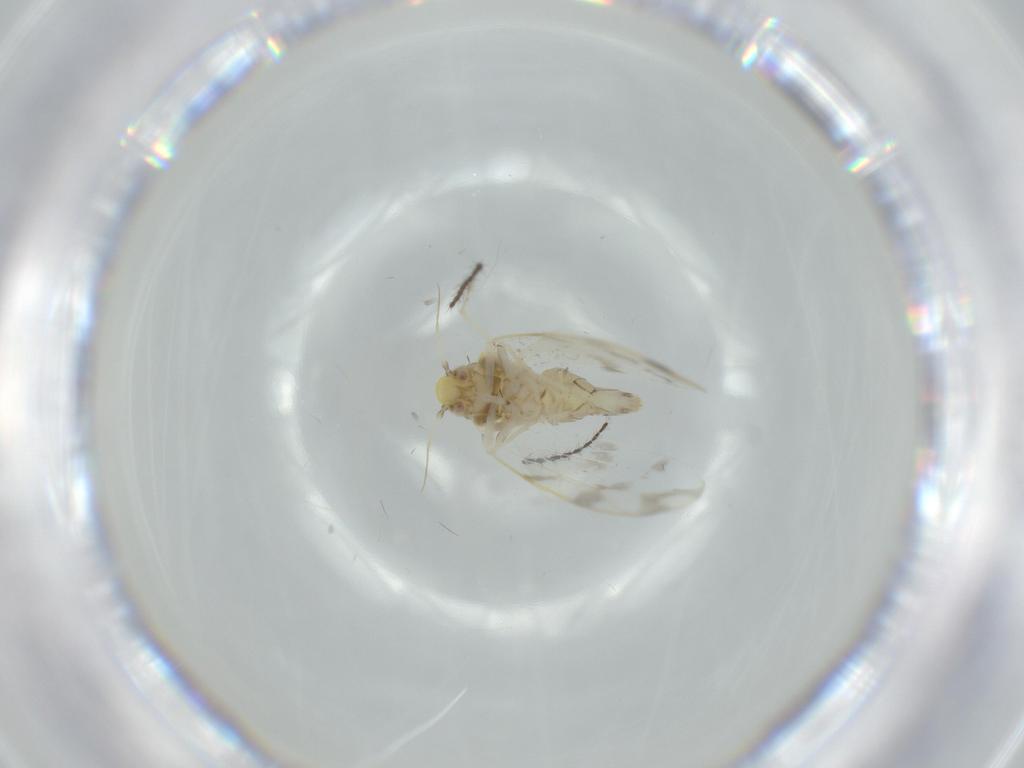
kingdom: Animalia
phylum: Arthropoda
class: Insecta
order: Hemiptera
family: Aleyrodidae
